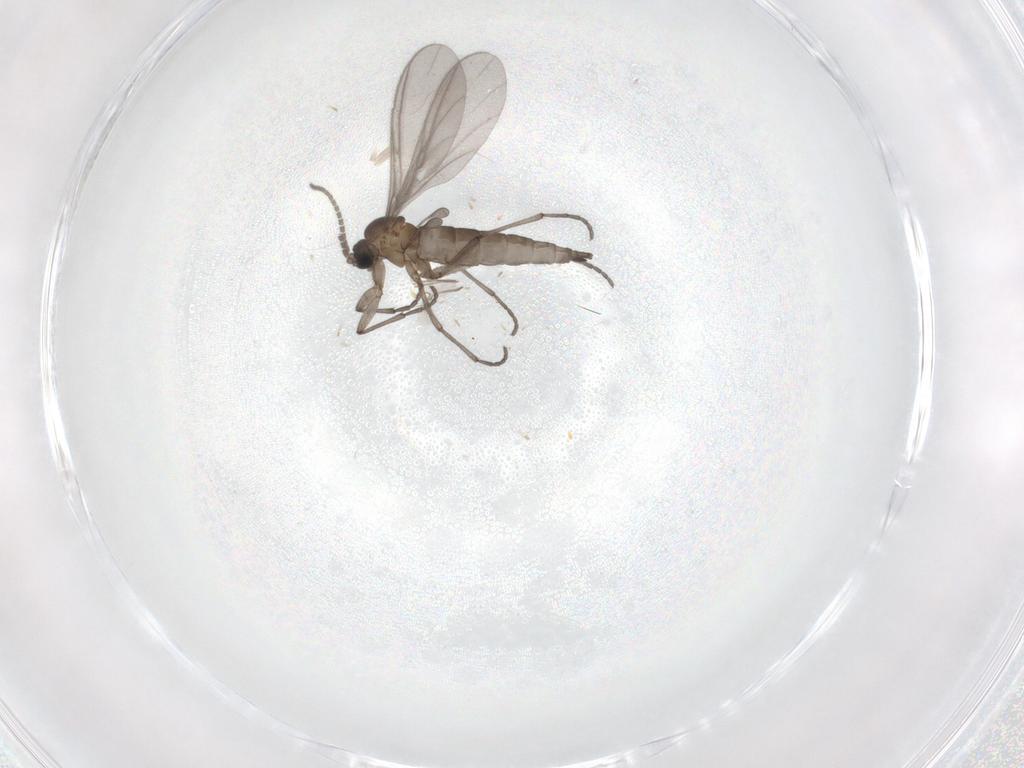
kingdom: Animalia
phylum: Arthropoda
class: Insecta
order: Diptera
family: Sciaridae
